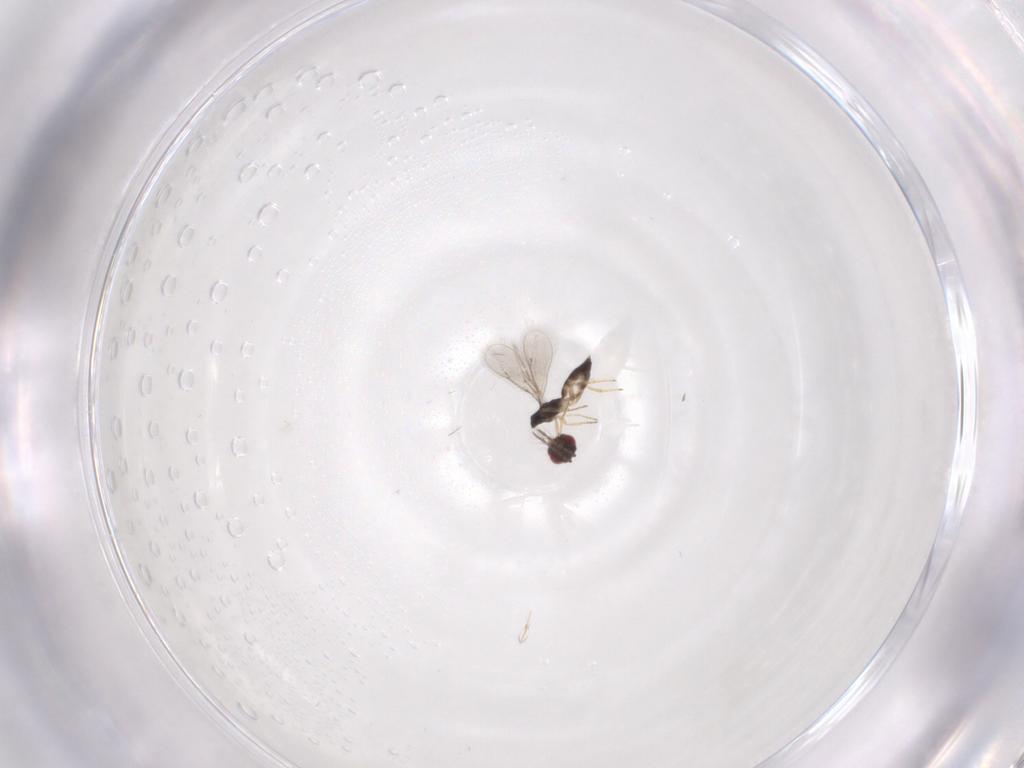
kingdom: Animalia
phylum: Arthropoda
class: Insecta
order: Hymenoptera
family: Eulophidae
